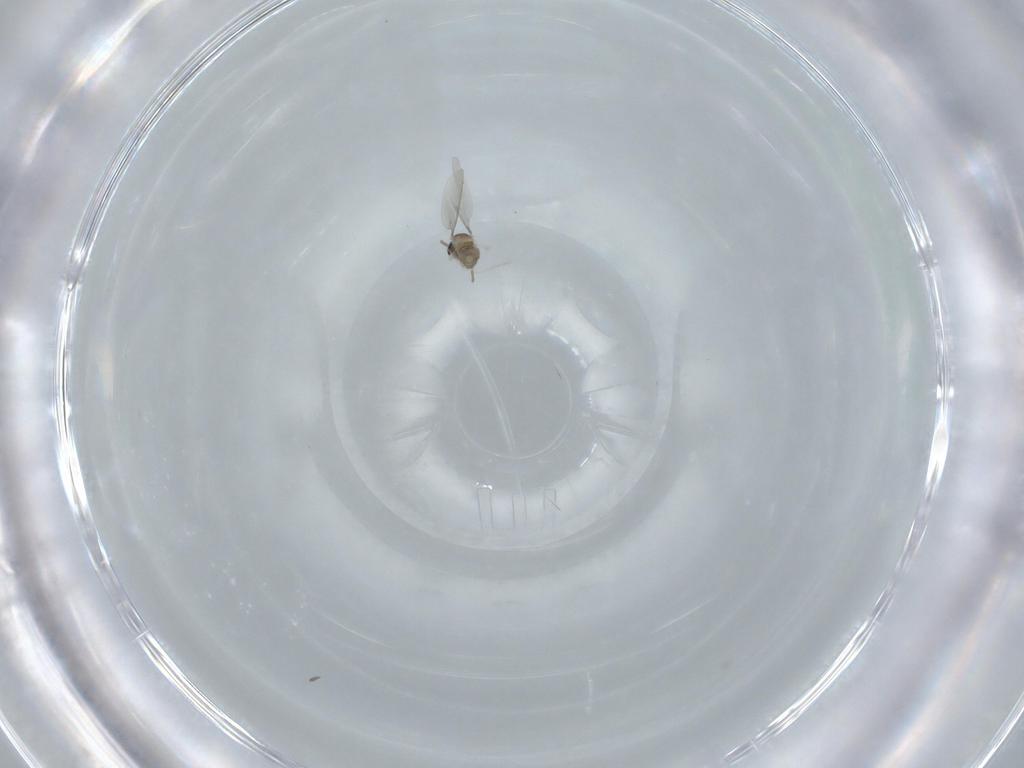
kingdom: Animalia
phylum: Arthropoda
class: Insecta
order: Diptera
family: Cecidomyiidae
